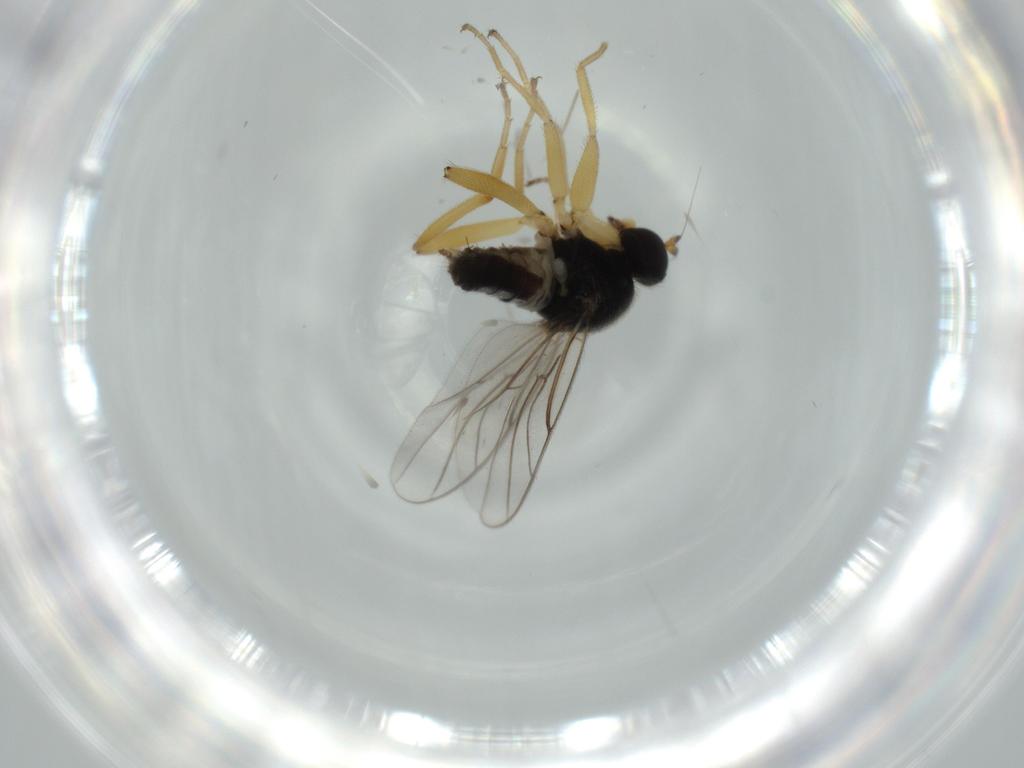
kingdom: Animalia
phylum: Arthropoda
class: Insecta
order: Diptera
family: Hybotidae
